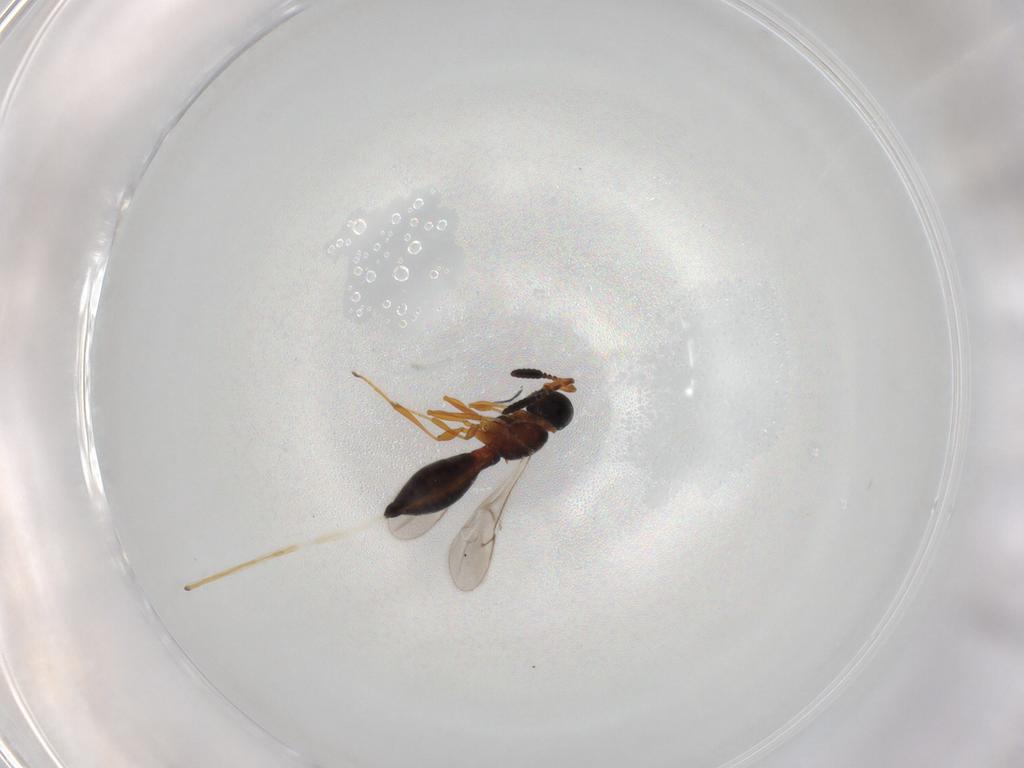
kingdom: Animalia
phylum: Arthropoda
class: Insecta
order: Hymenoptera
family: Scelionidae
